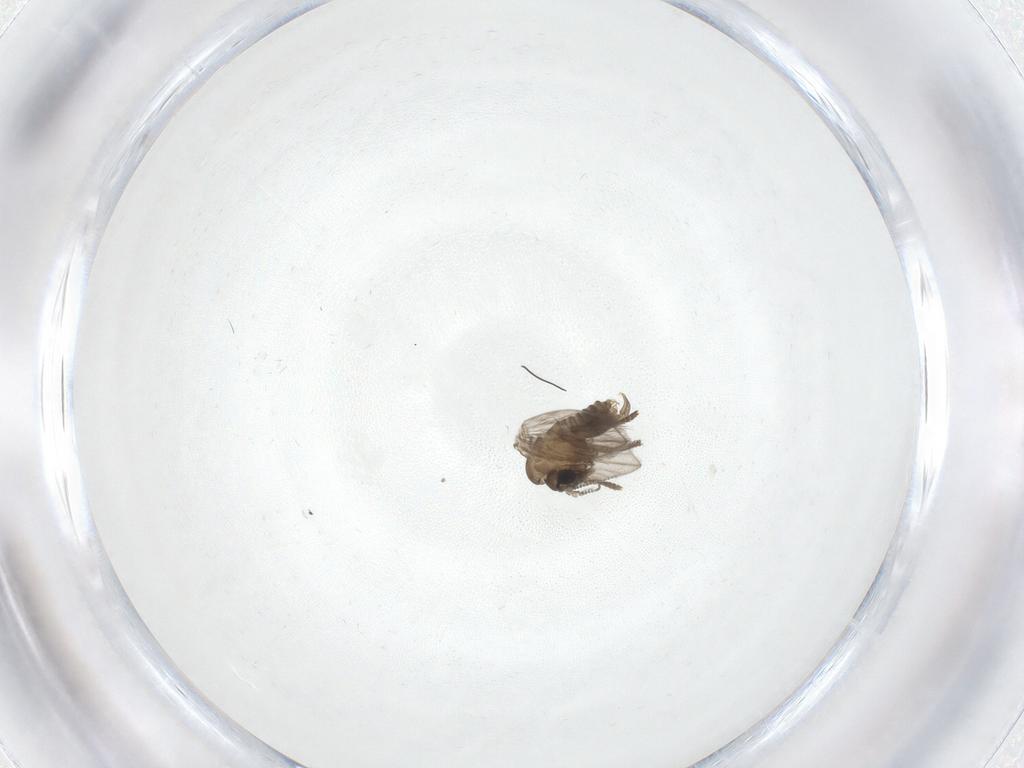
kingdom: Animalia
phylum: Arthropoda
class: Insecta
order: Diptera
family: Psychodidae
